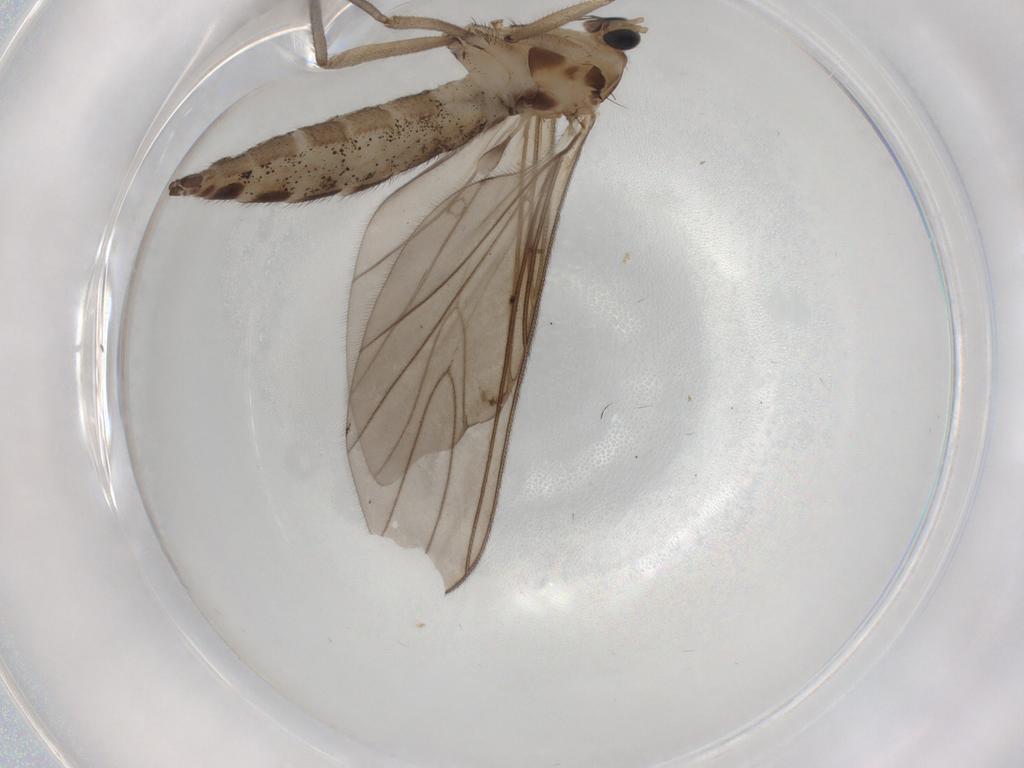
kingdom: Animalia
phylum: Arthropoda
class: Insecta
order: Diptera
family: Sciaridae
